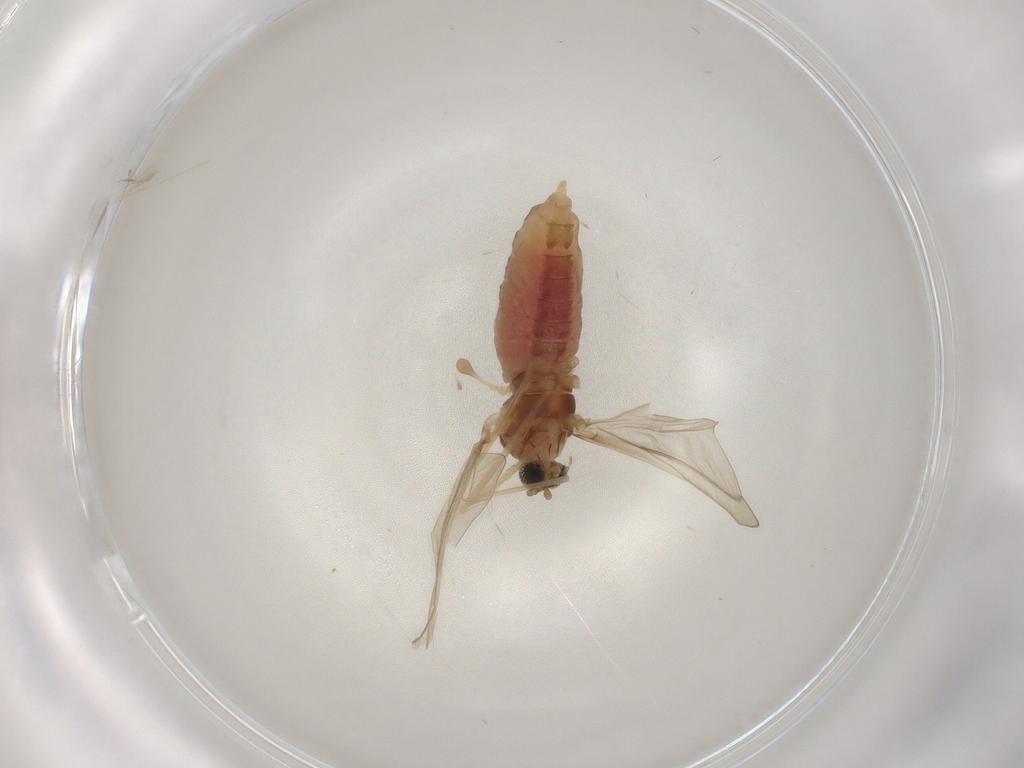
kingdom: Animalia
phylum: Arthropoda
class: Insecta
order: Diptera
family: Cecidomyiidae
